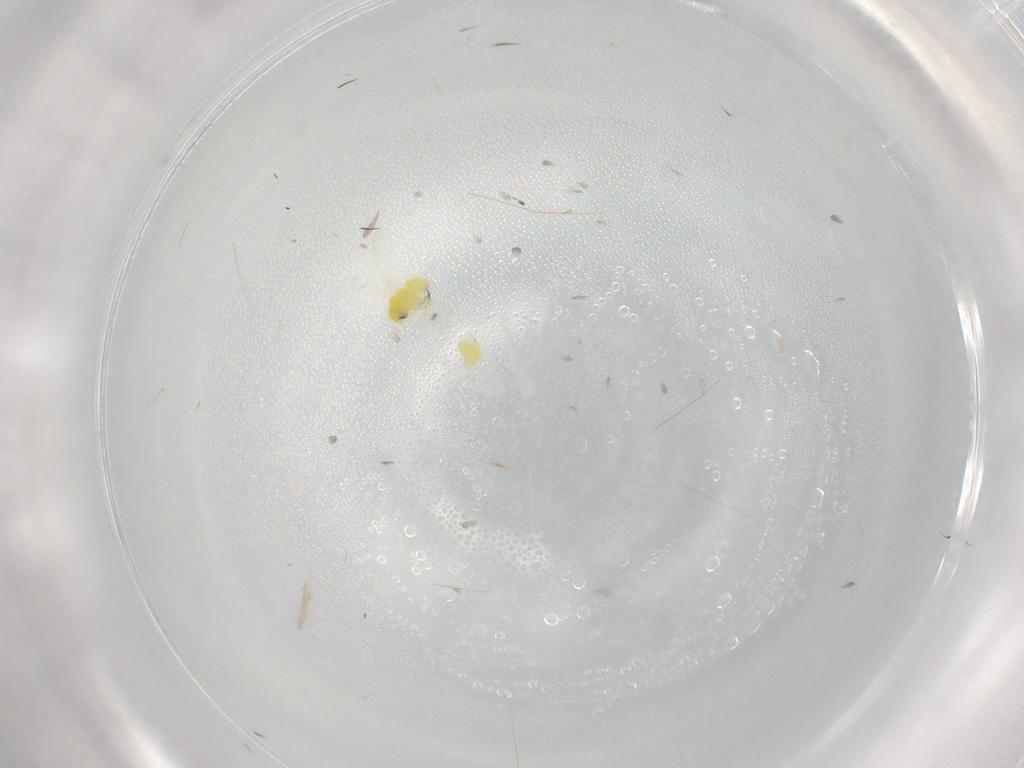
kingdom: Animalia
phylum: Arthropoda
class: Insecta
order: Hemiptera
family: Aleyrodidae
